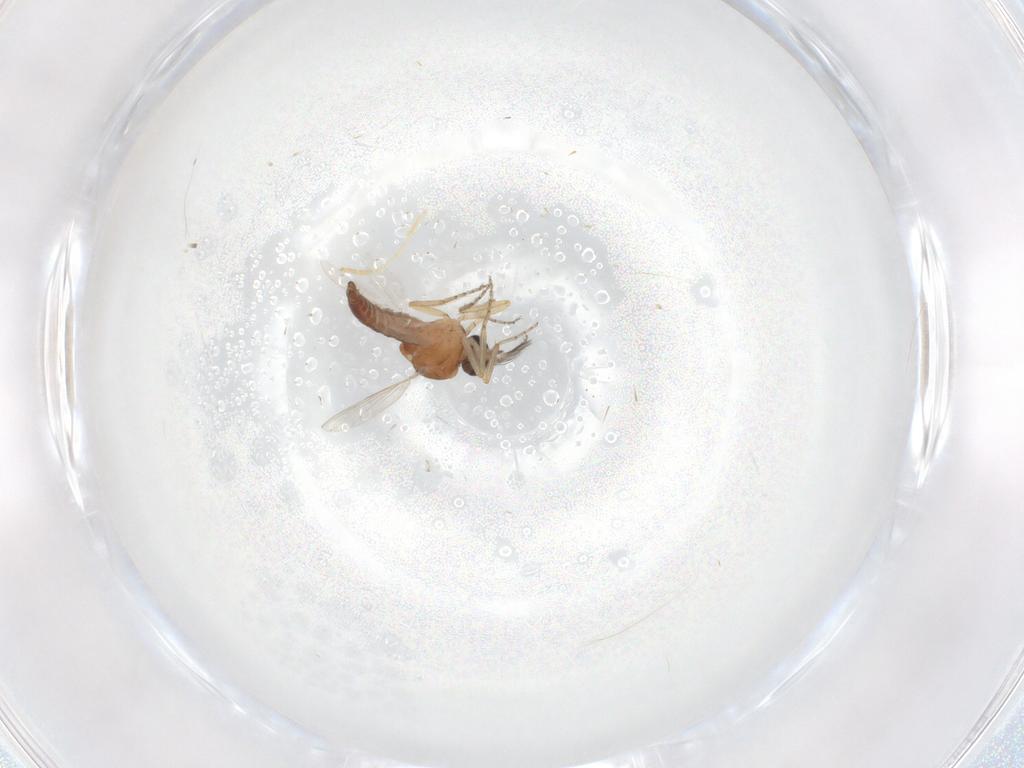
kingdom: Animalia
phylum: Arthropoda
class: Insecta
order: Diptera
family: Ceratopogonidae
